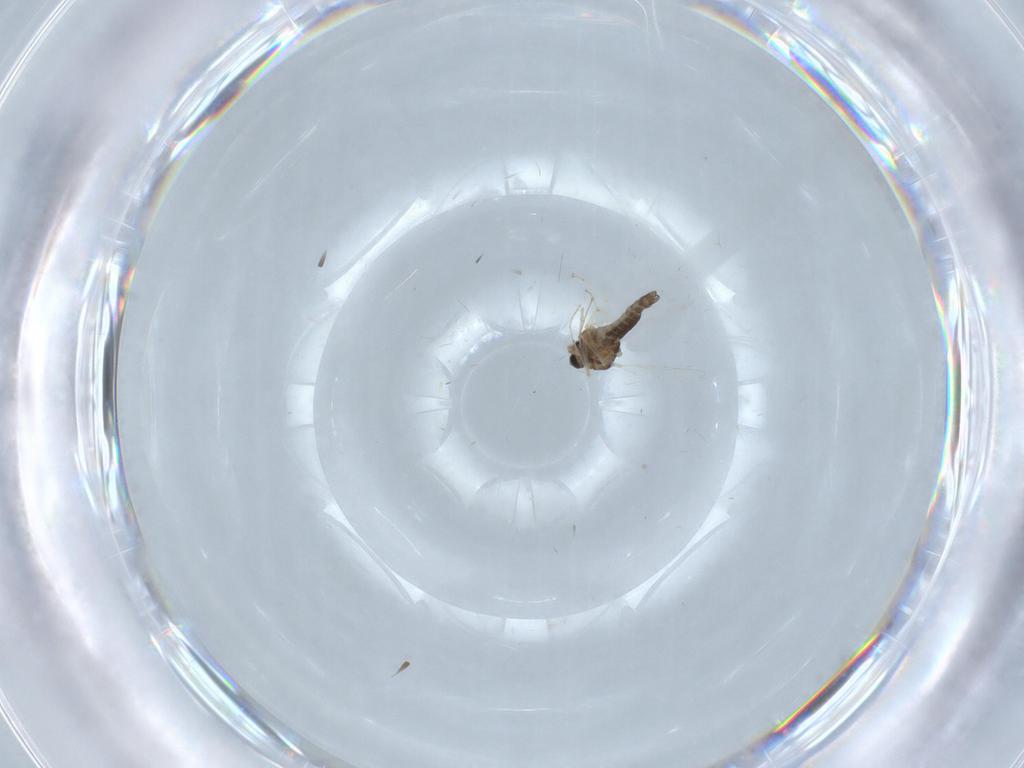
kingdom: Animalia
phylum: Arthropoda
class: Insecta
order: Diptera
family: Chironomidae
